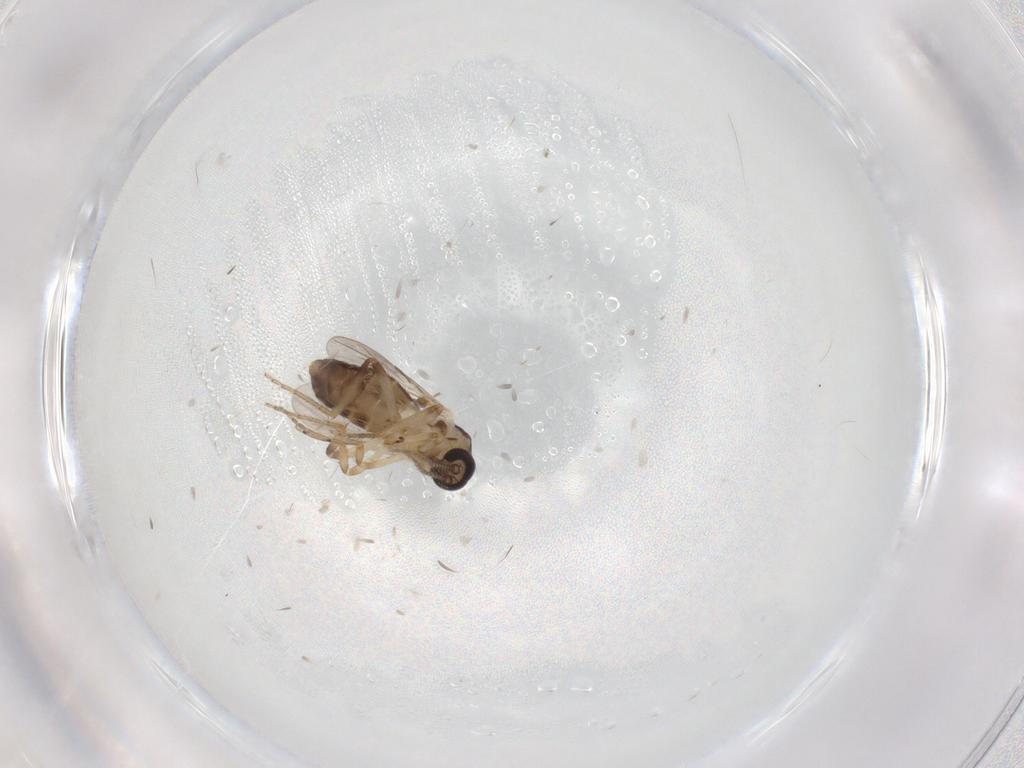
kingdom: Animalia
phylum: Arthropoda
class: Insecta
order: Diptera
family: Ceratopogonidae
